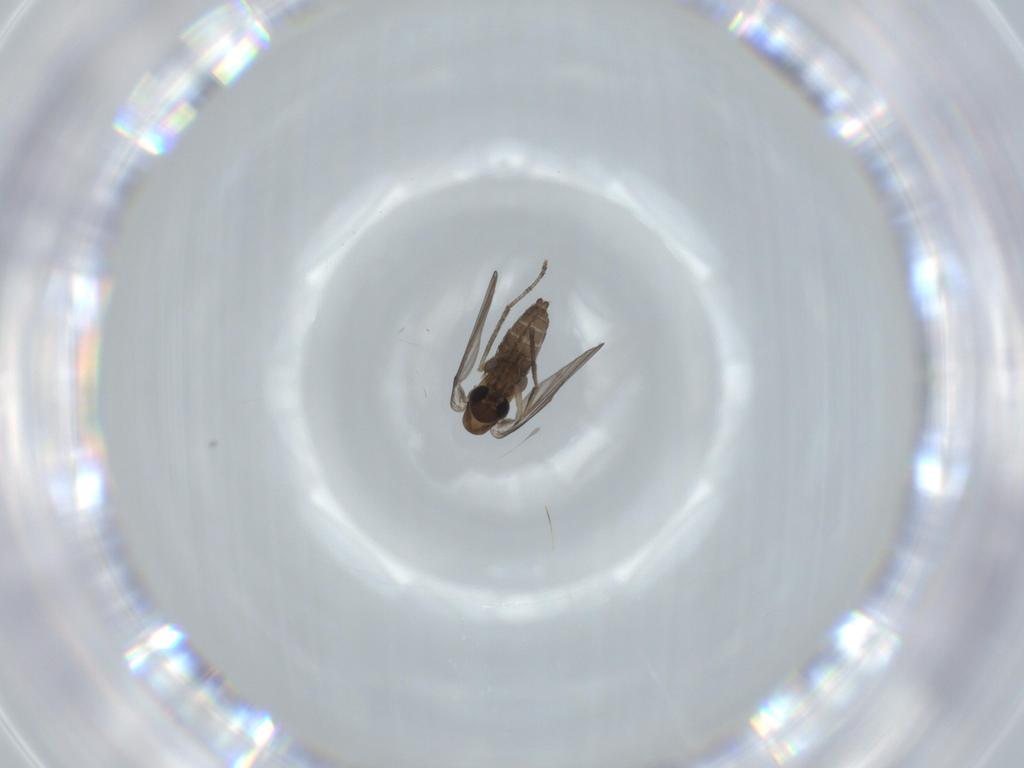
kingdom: Animalia
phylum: Arthropoda
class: Insecta
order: Diptera
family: Psychodidae
